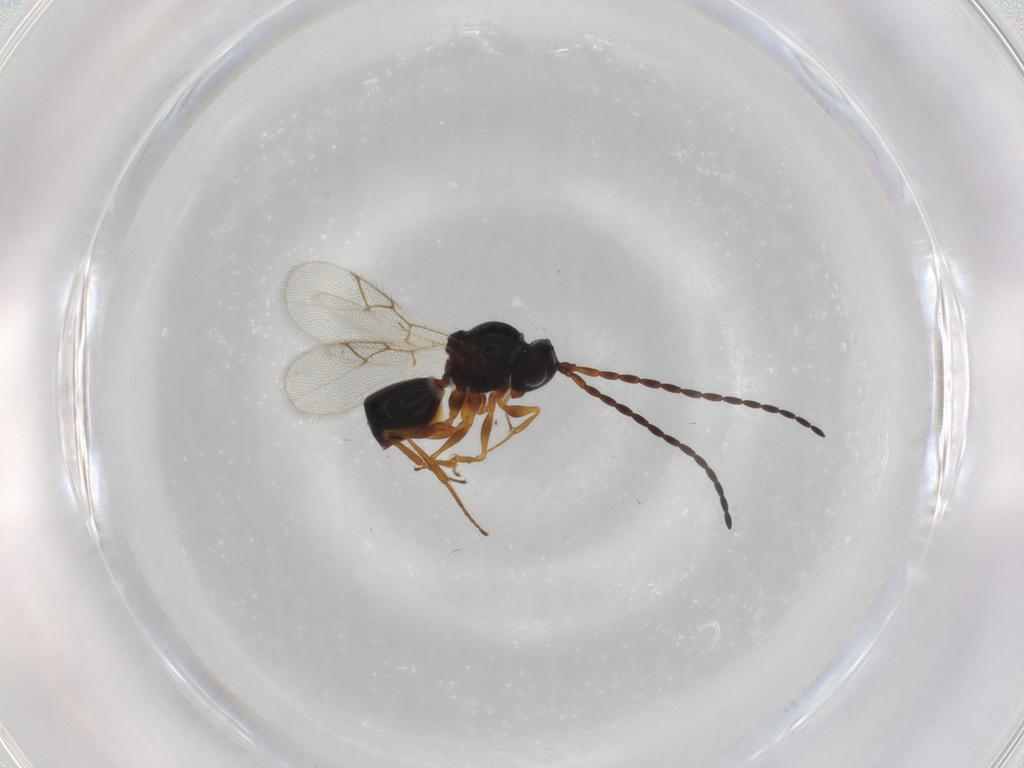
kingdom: Animalia
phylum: Arthropoda
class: Insecta
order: Hymenoptera
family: Figitidae
